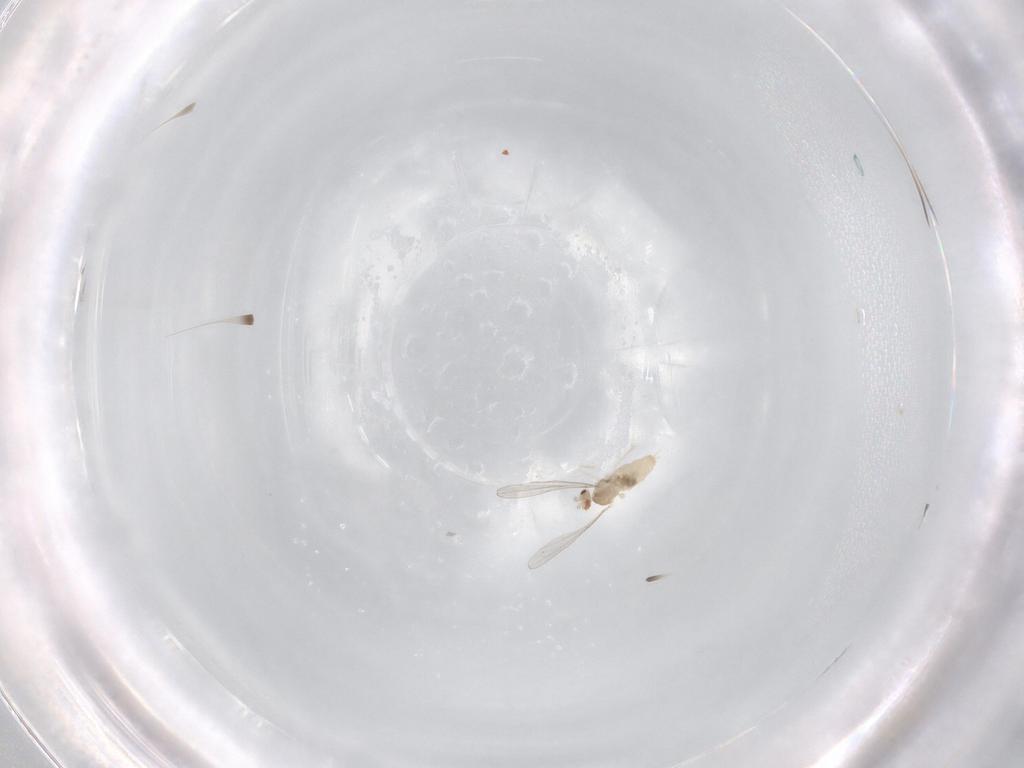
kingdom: Animalia
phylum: Arthropoda
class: Insecta
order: Diptera
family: Cecidomyiidae
